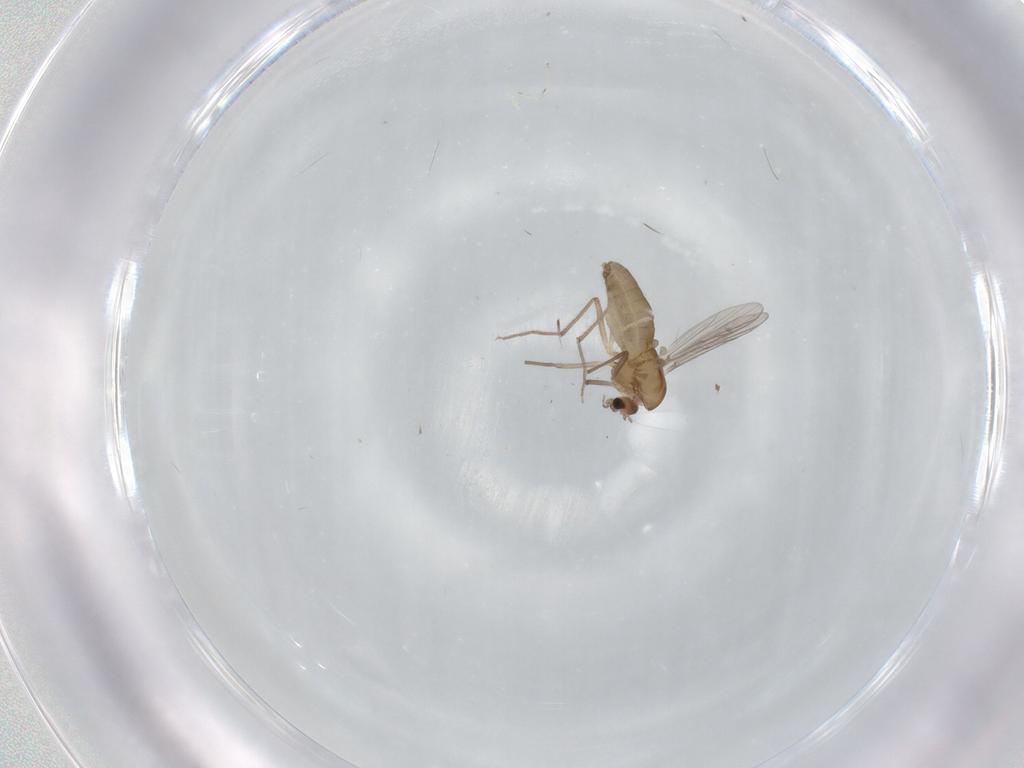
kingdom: Animalia
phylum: Arthropoda
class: Insecta
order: Diptera
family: Chironomidae
